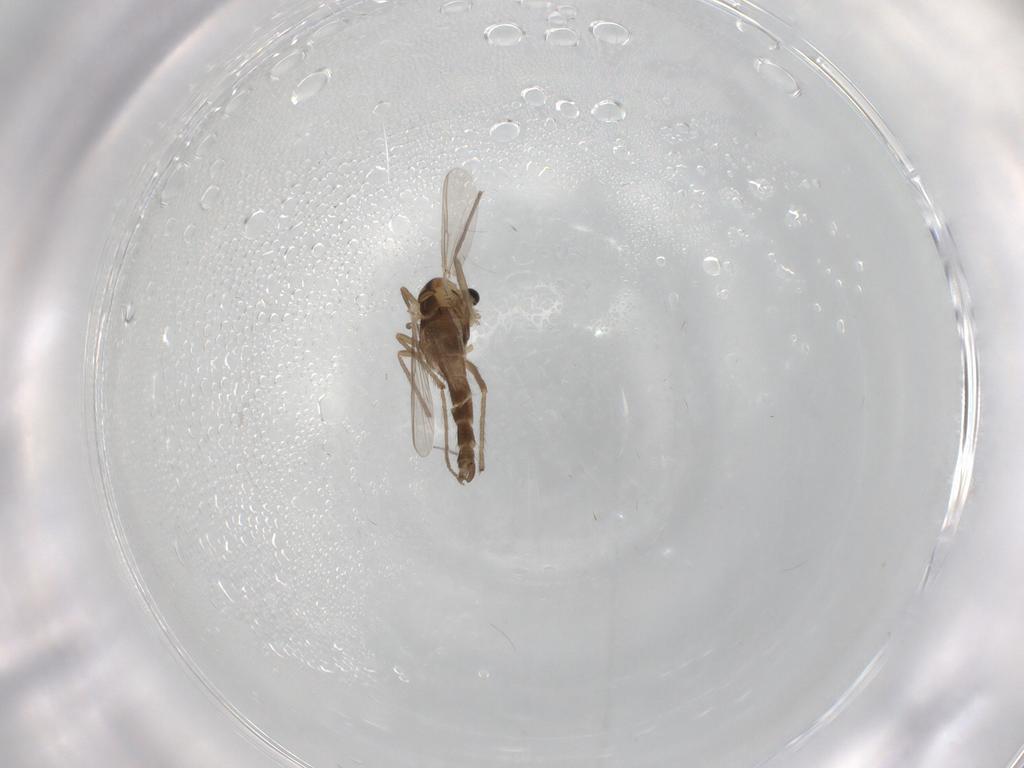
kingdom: Animalia
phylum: Arthropoda
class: Insecta
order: Diptera
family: Chironomidae
